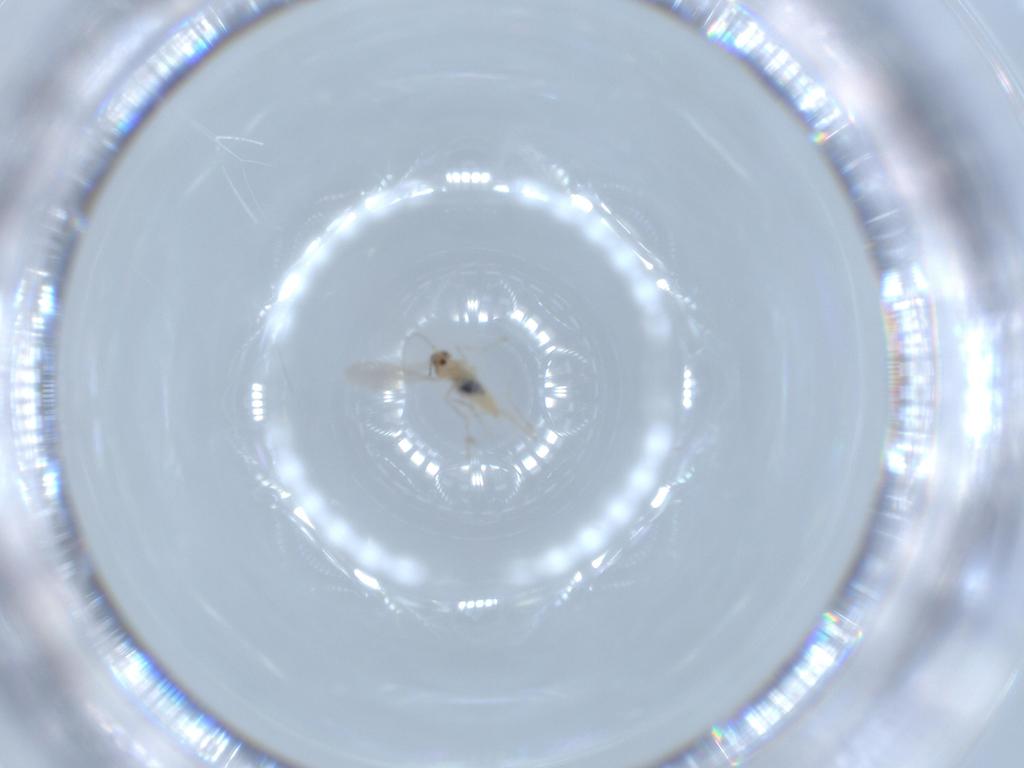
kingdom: Animalia
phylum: Arthropoda
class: Insecta
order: Diptera
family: Cecidomyiidae
